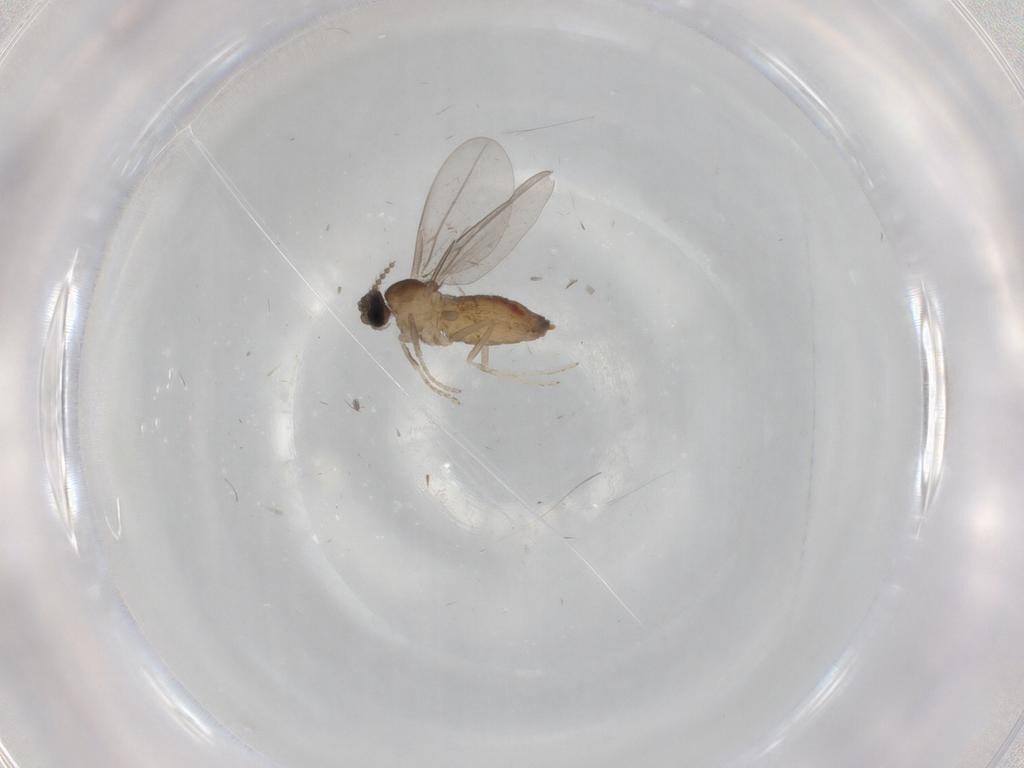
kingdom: Animalia
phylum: Arthropoda
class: Insecta
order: Diptera
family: Cecidomyiidae
